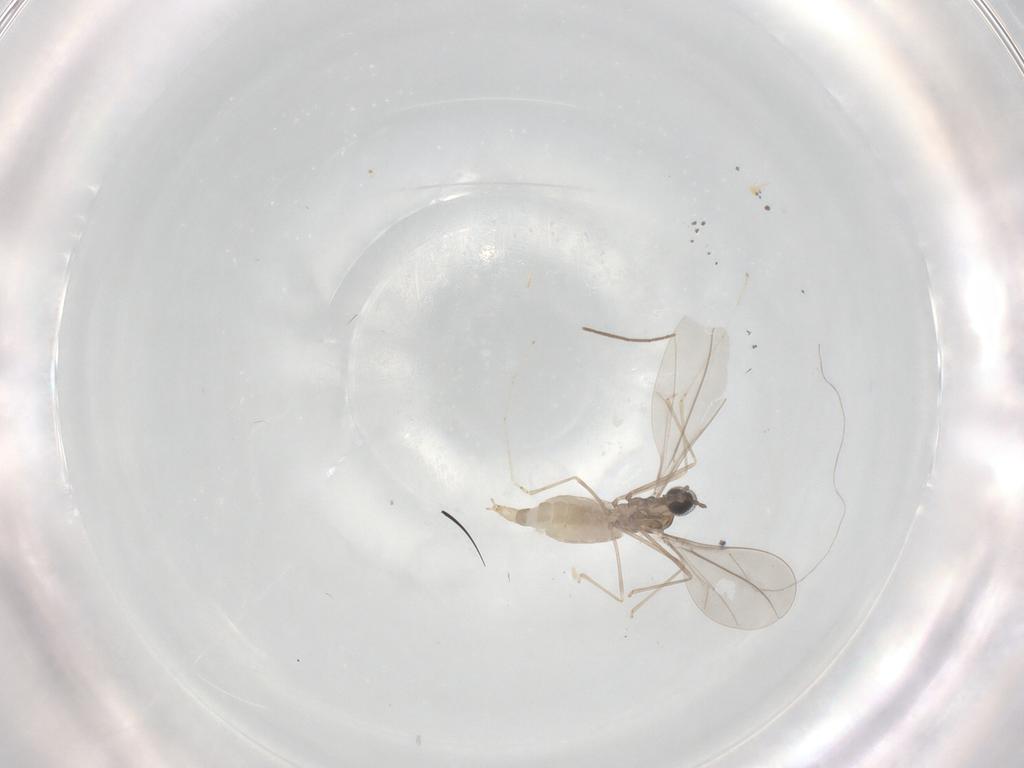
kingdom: Animalia
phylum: Arthropoda
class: Insecta
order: Diptera
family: Cecidomyiidae
